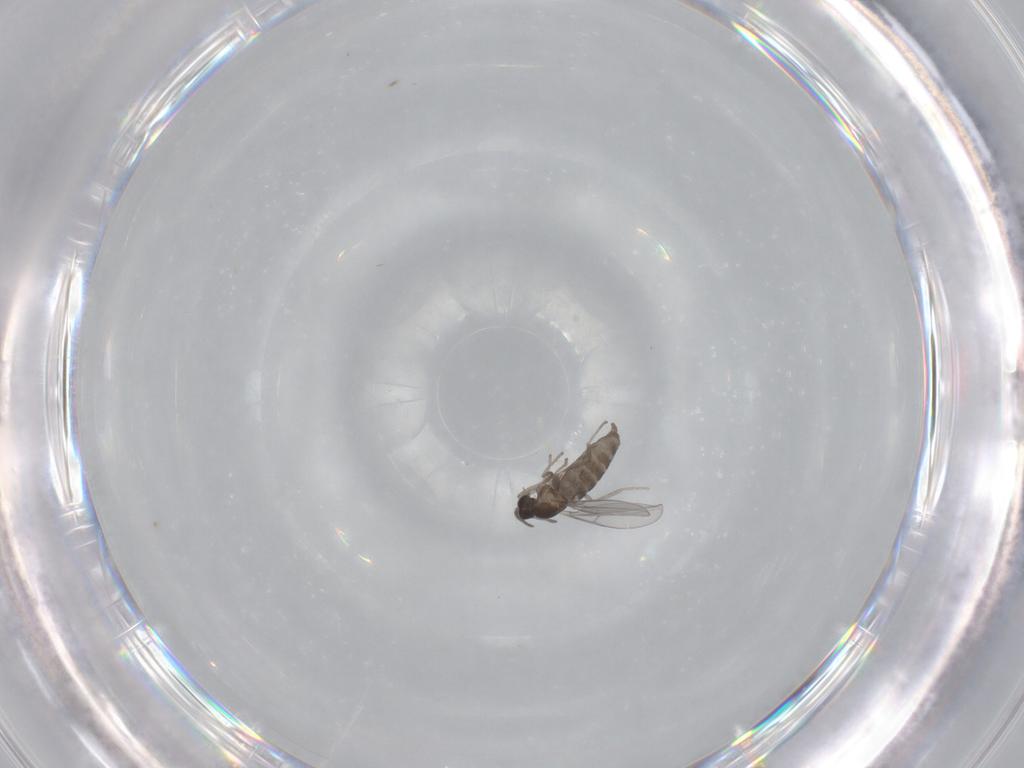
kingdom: Animalia
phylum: Arthropoda
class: Insecta
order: Diptera
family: Cecidomyiidae
